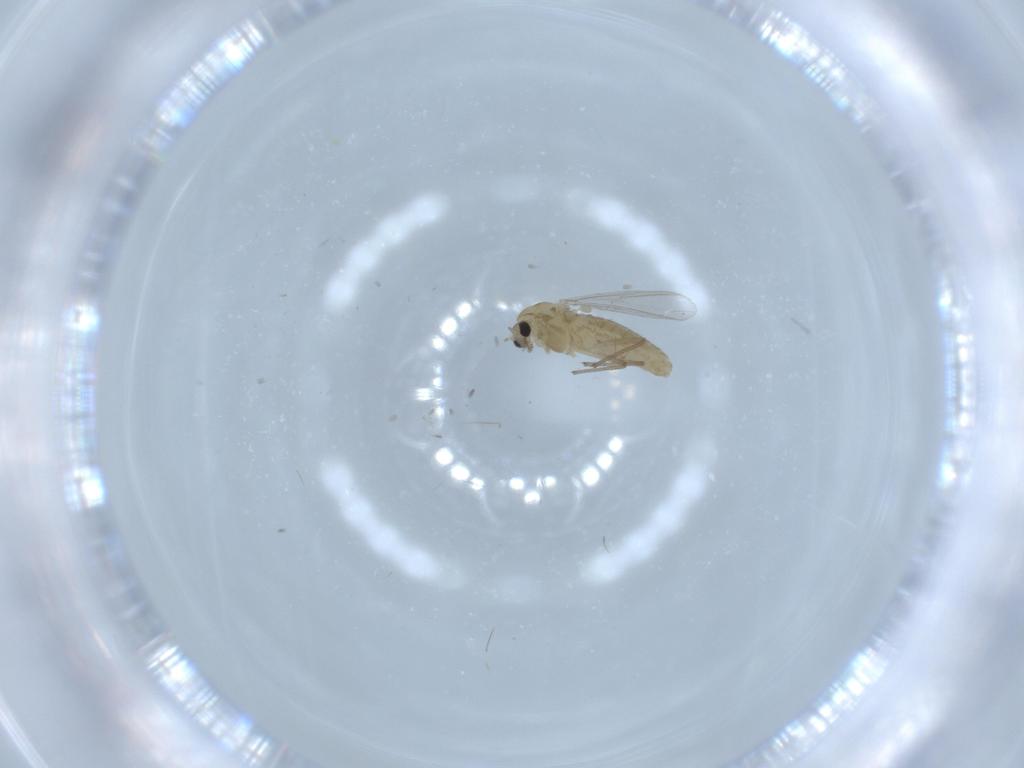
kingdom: Animalia
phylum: Arthropoda
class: Insecta
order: Diptera
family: Chironomidae
